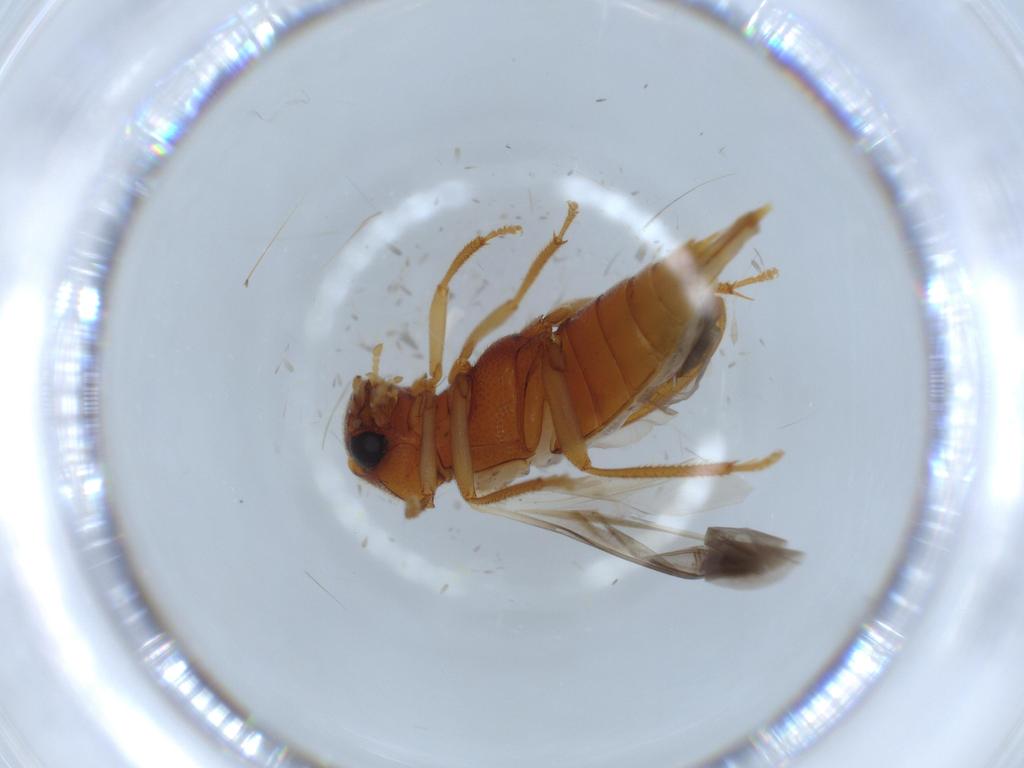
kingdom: Animalia
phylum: Arthropoda
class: Insecta
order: Coleoptera
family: Ptilodactylidae
